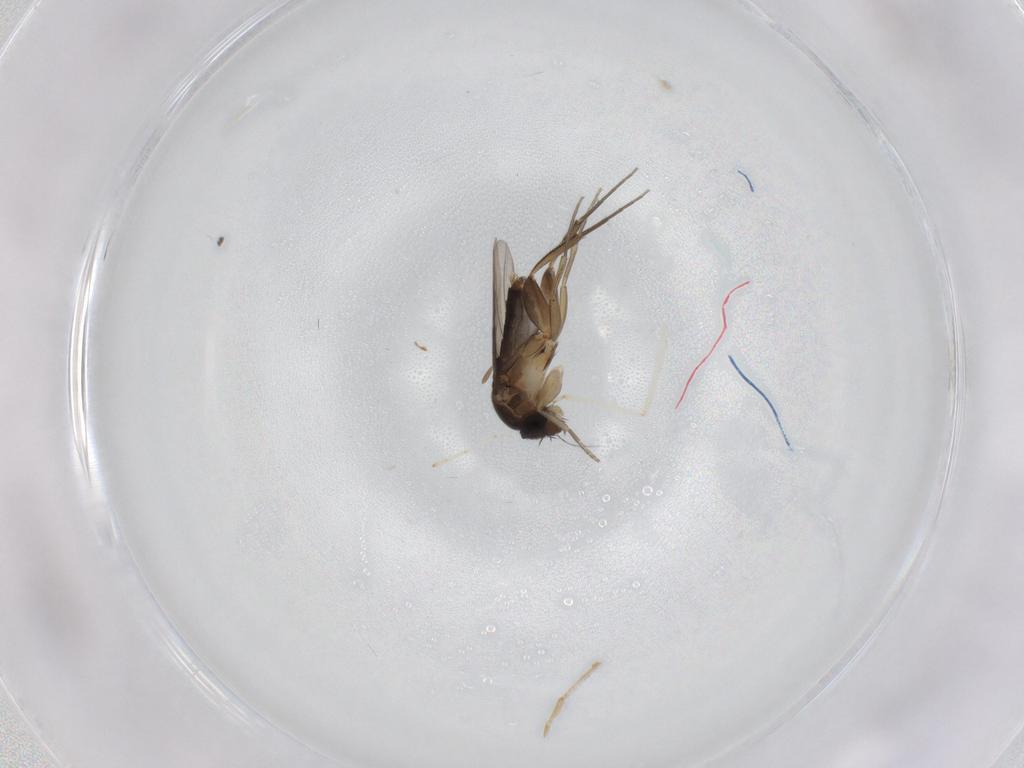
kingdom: Animalia
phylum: Arthropoda
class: Insecta
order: Diptera
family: Phoridae
